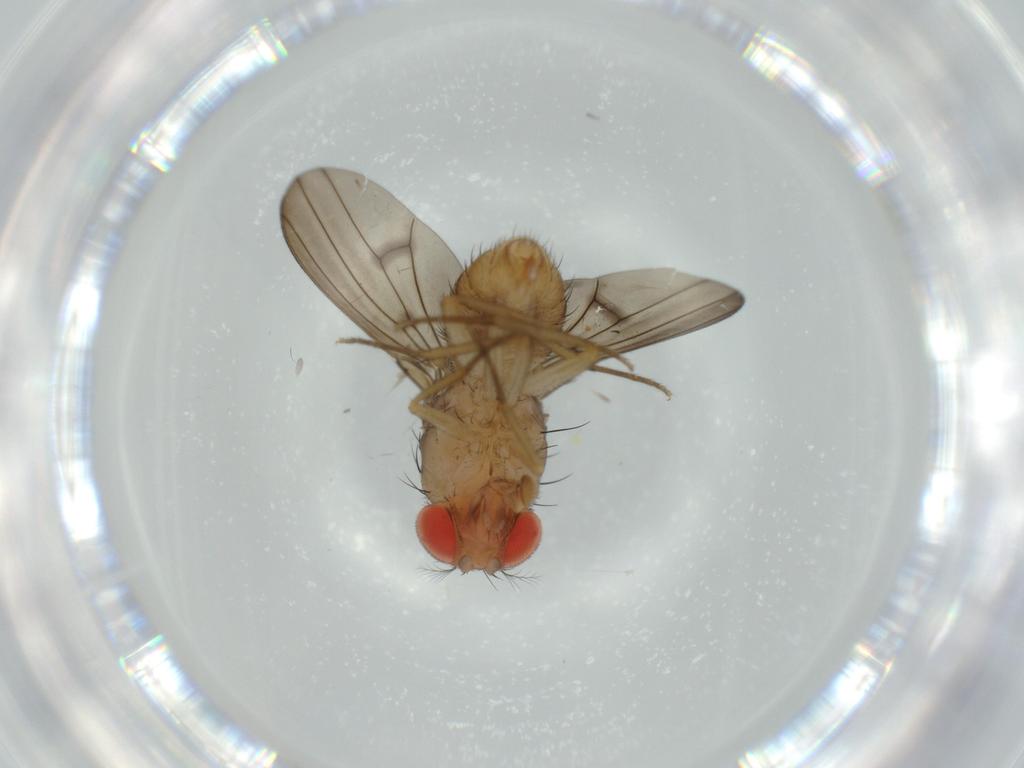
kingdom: Animalia
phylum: Arthropoda
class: Insecta
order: Diptera
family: Drosophilidae
